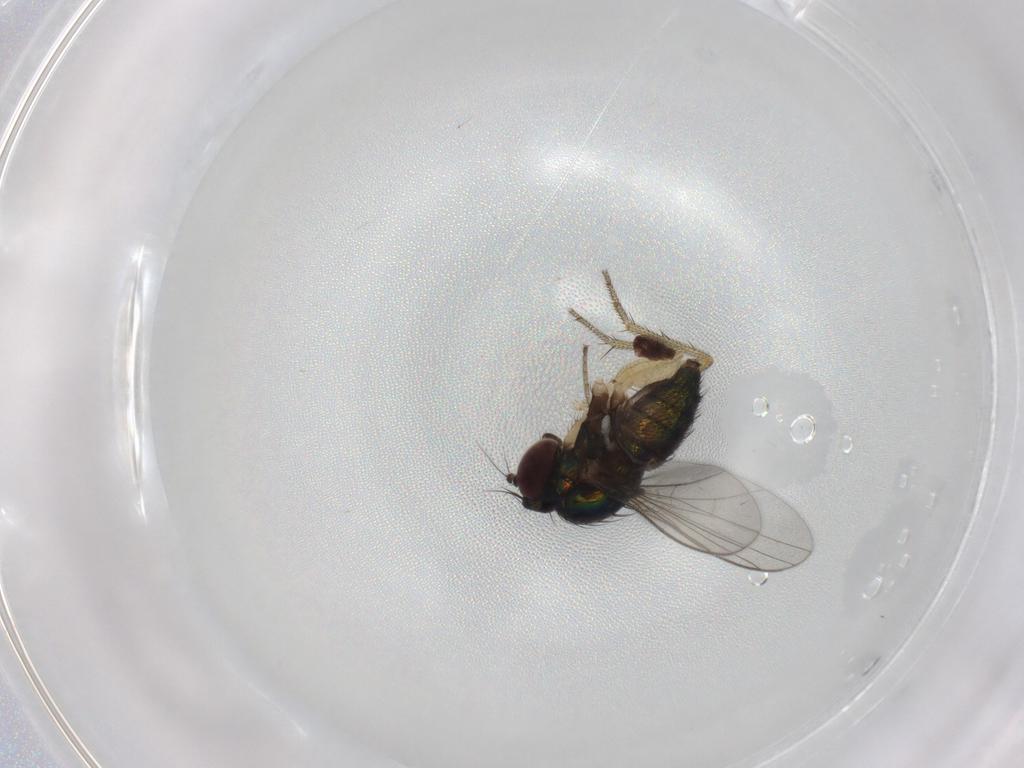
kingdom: Animalia
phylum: Arthropoda
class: Insecta
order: Diptera
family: Dolichopodidae
